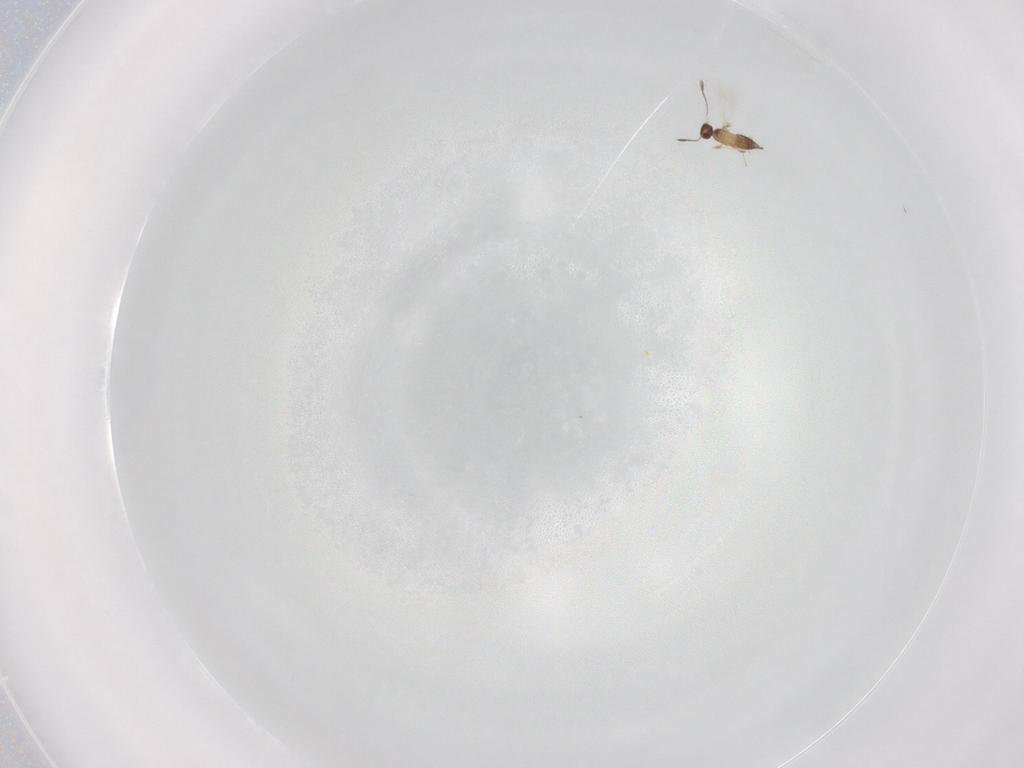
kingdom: Animalia
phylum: Arthropoda
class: Insecta
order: Hymenoptera
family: Mymaridae
